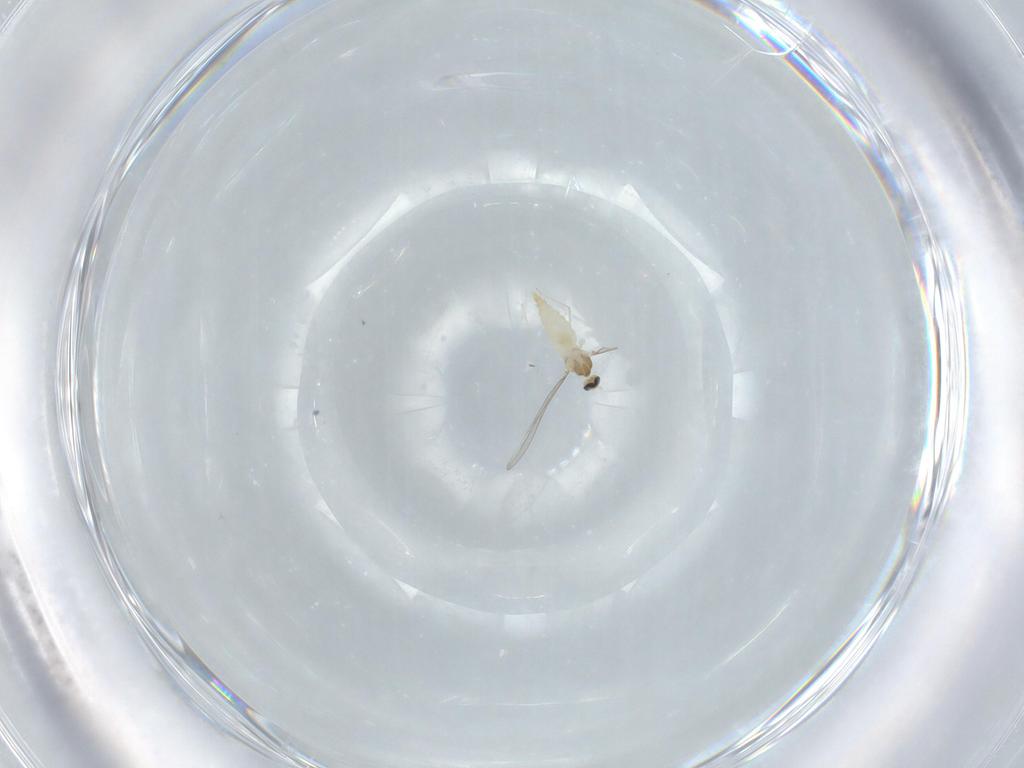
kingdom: Animalia
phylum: Arthropoda
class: Insecta
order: Diptera
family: Cecidomyiidae
